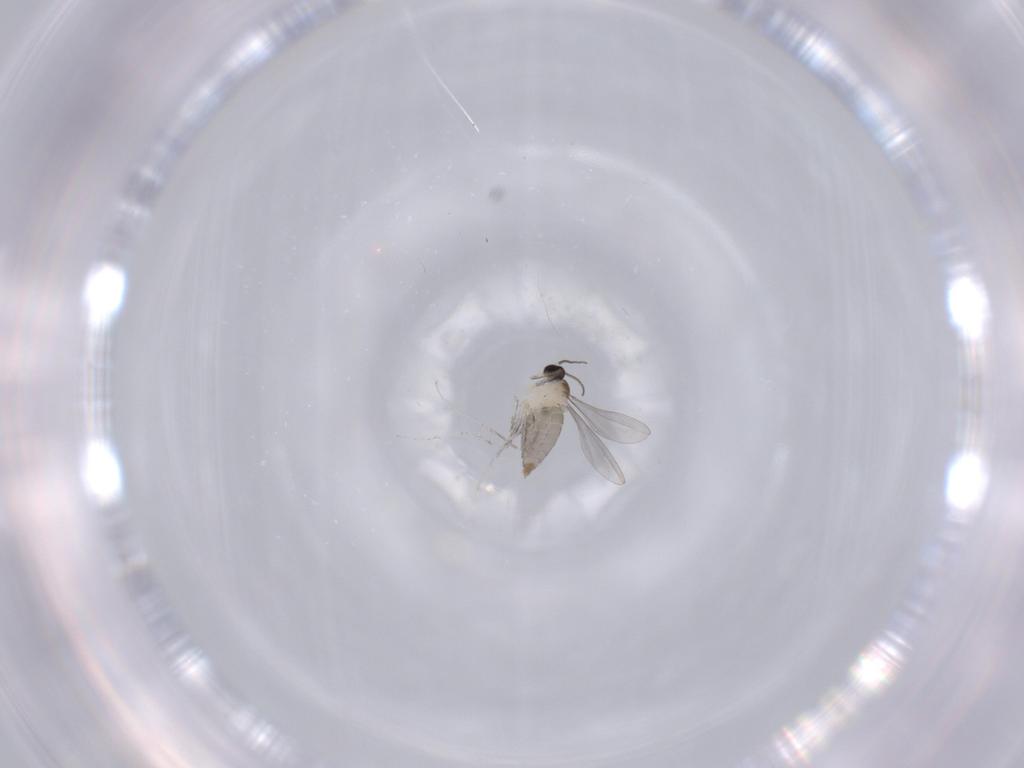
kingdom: Animalia
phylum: Arthropoda
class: Insecta
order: Diptera
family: Cecidomyiidae
